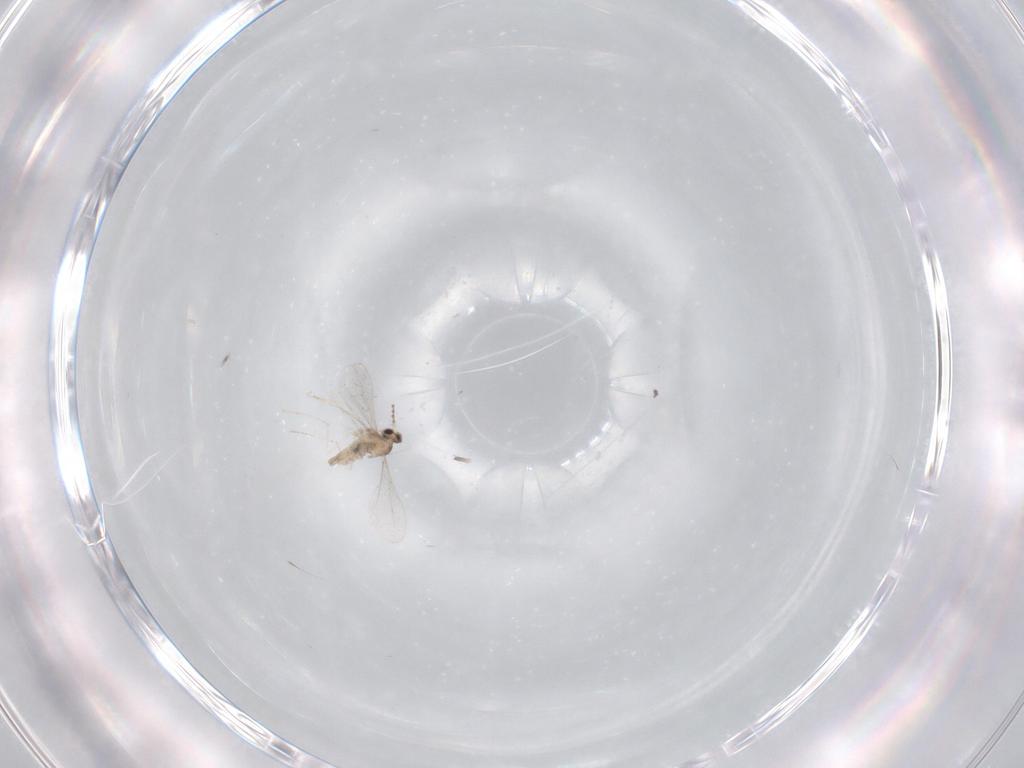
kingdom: Animalia
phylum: Arthropoda
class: Insecta
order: Diptera
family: Cecidomyiidae
